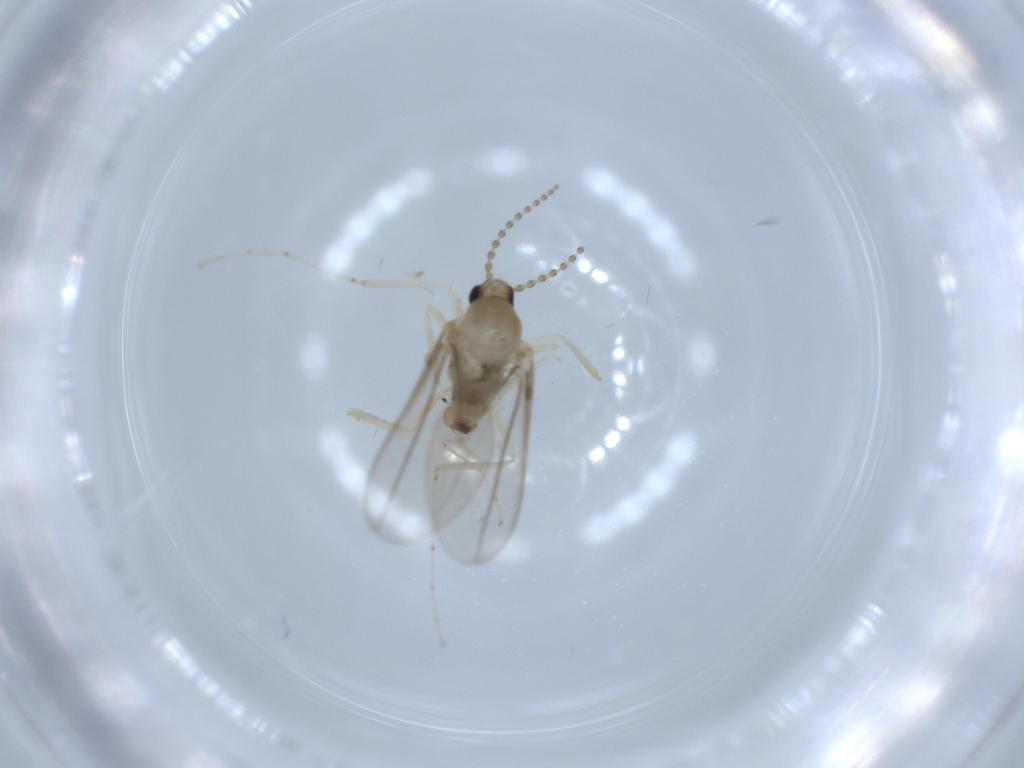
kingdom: Animalia
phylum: Arthropoda
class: Insecta
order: Diptera
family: Cecidomyiidae
